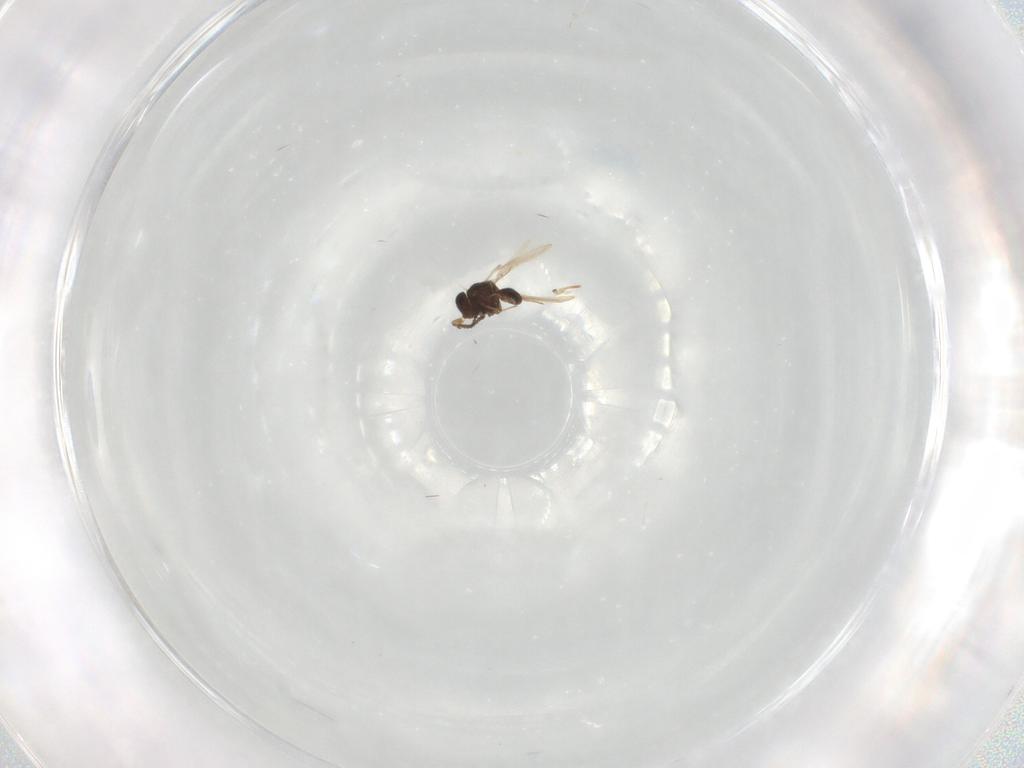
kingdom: Animalia
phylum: Arthropoda
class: Insecta
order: Hymenoptera
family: Scelionidae
